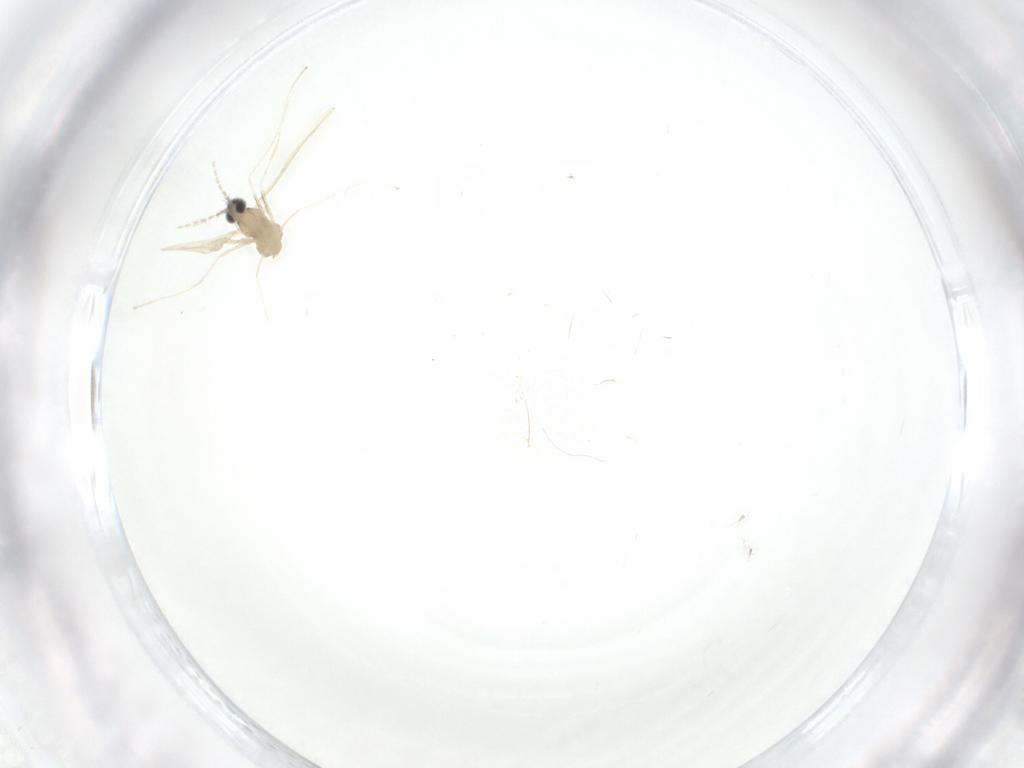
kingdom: Animalia
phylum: Arthropoda
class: Insecta
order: Diptera
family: Cecidomyiidae
